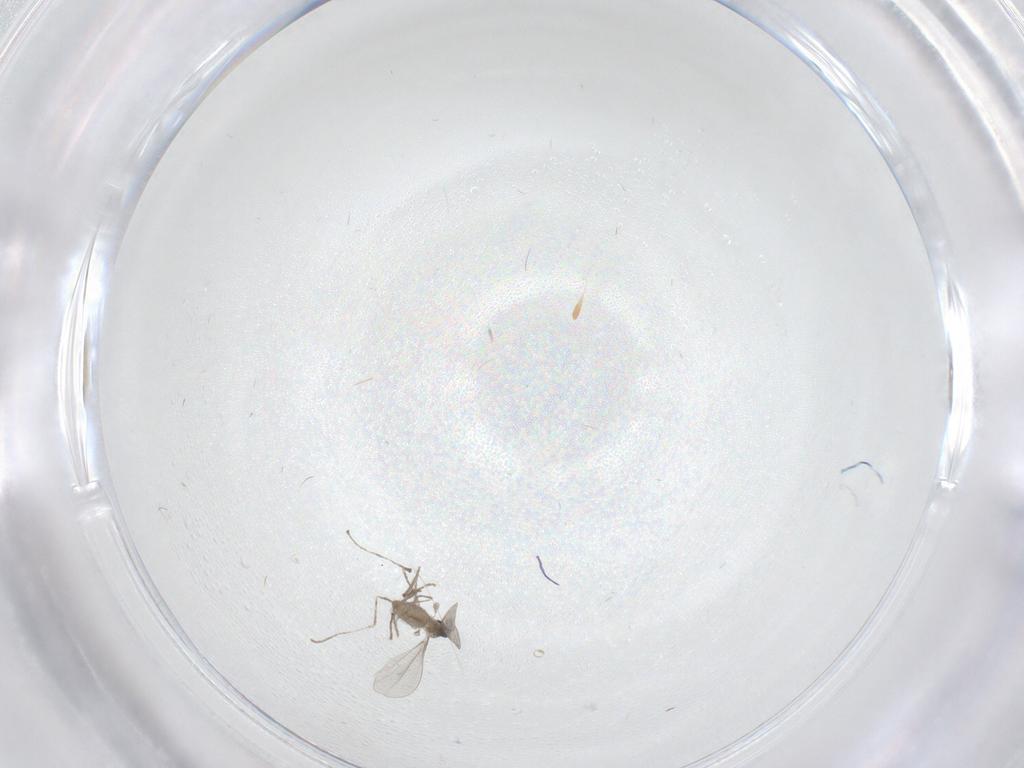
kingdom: Animalia
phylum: Arthropoda
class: Insecta
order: Diptera
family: Cecidomyiidae
